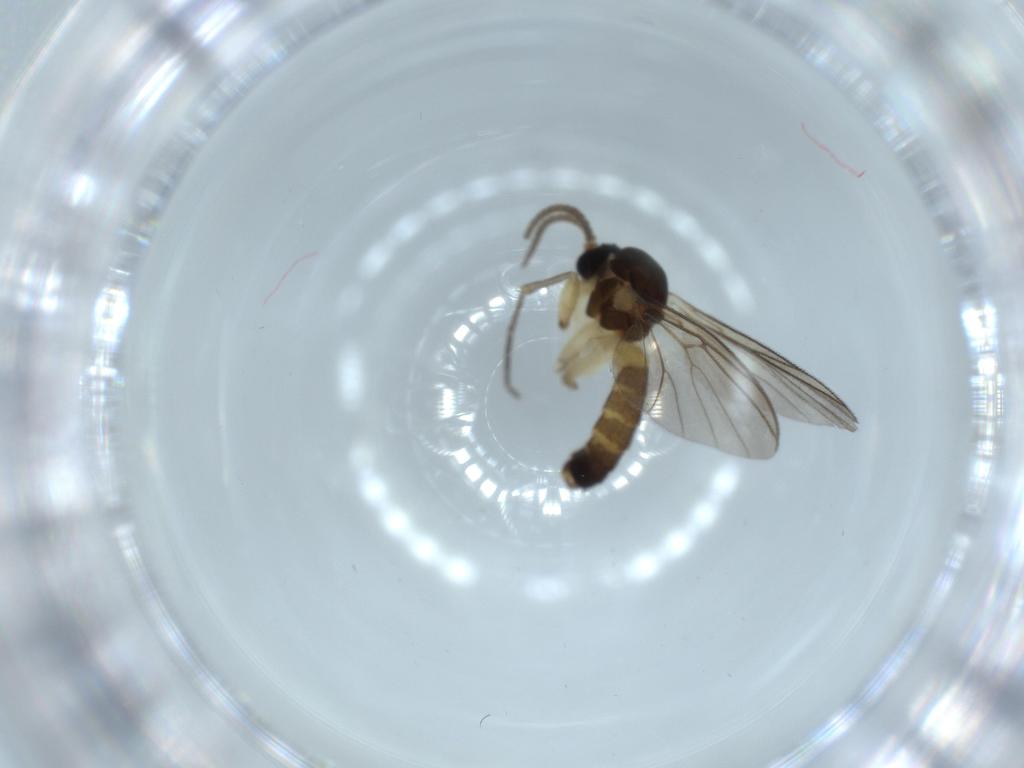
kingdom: Animalia
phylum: Arthropoda
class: Insecta
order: Diptera
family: Mycetophilidae
